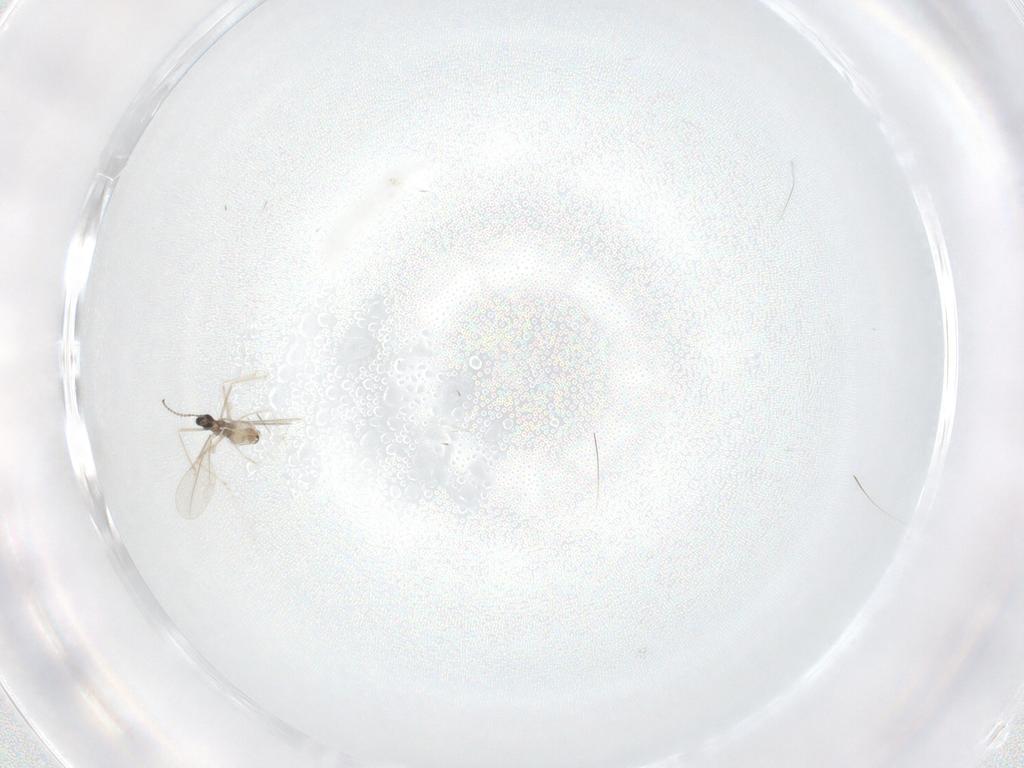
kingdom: Animalia
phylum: Arthropoda
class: Insecta
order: Diptera
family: Cecidomyiidae
